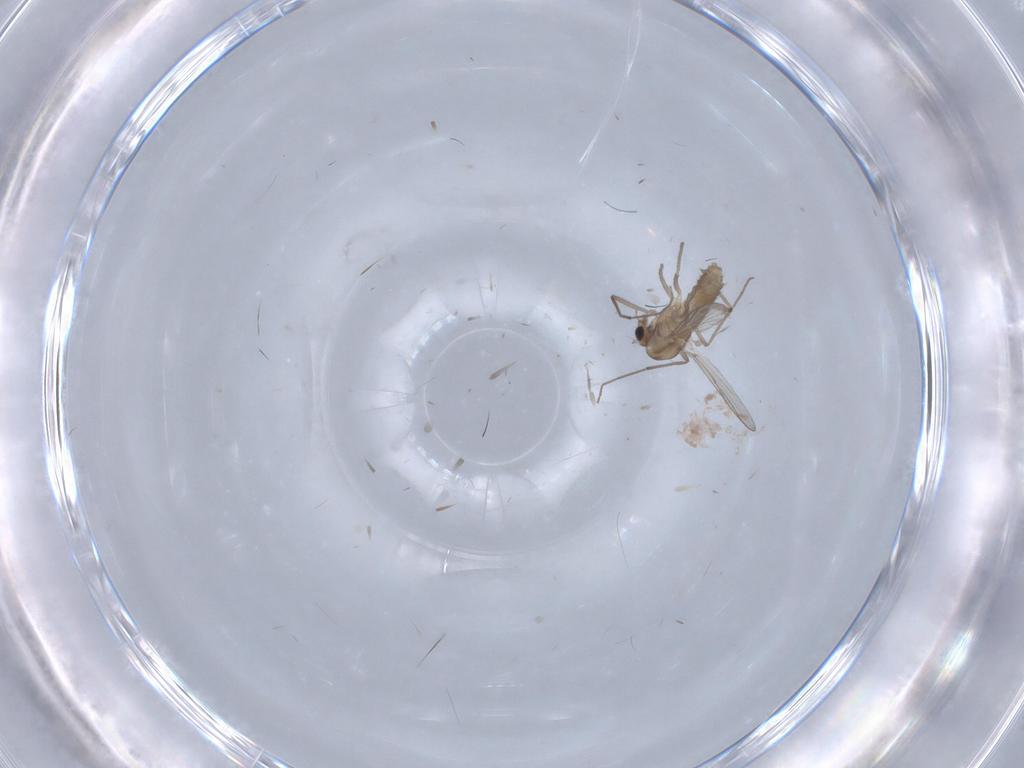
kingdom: Animalia
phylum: Arthropoda
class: Insecta
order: Diptera
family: Chironomidae
